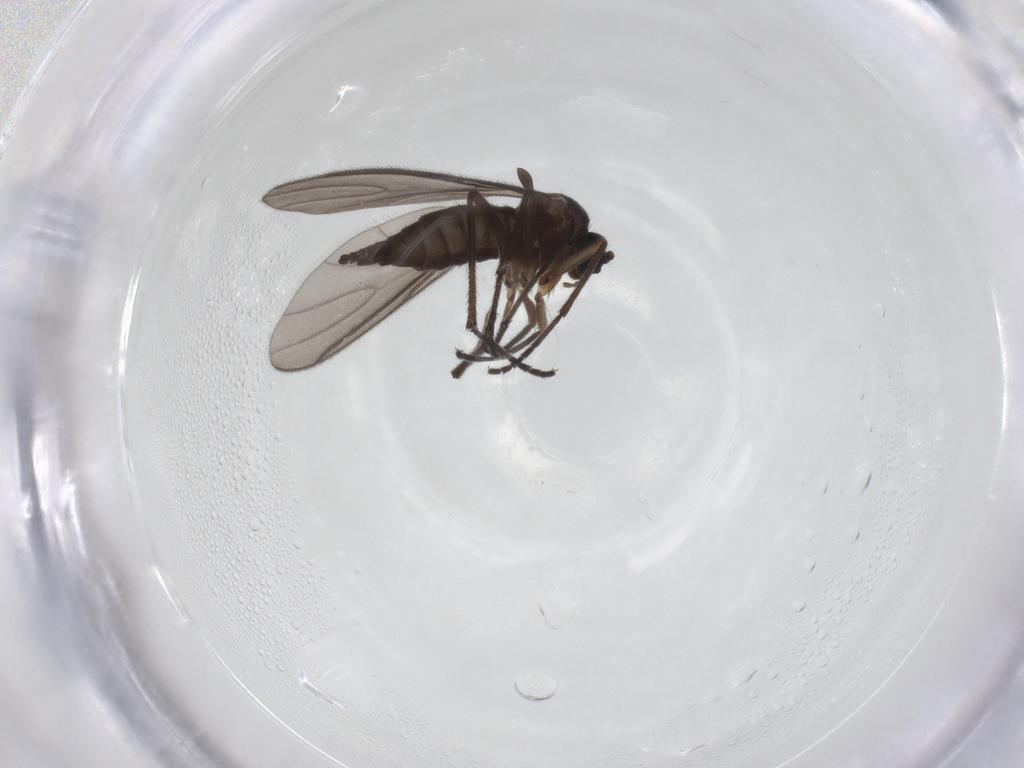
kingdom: Animalia
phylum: Arthropoda
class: Insecta
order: Diptera
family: Sciaridae
